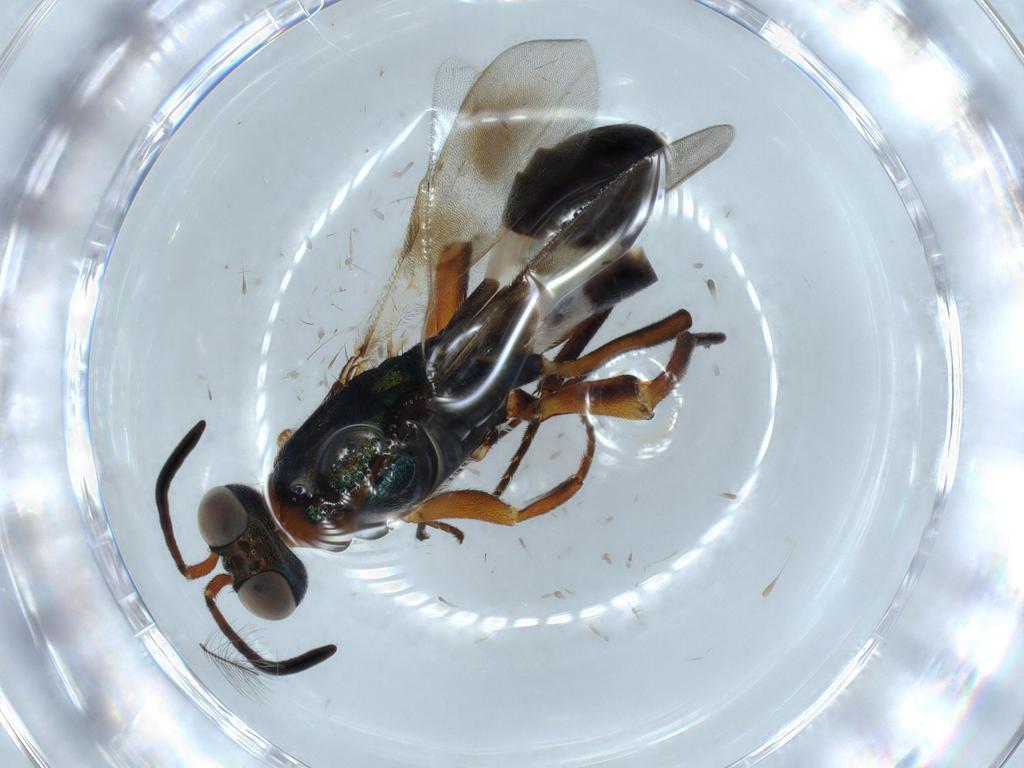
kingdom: Animalia
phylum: Arthropoda
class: Insecta
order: Hymenoptera
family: Eupelmidae
